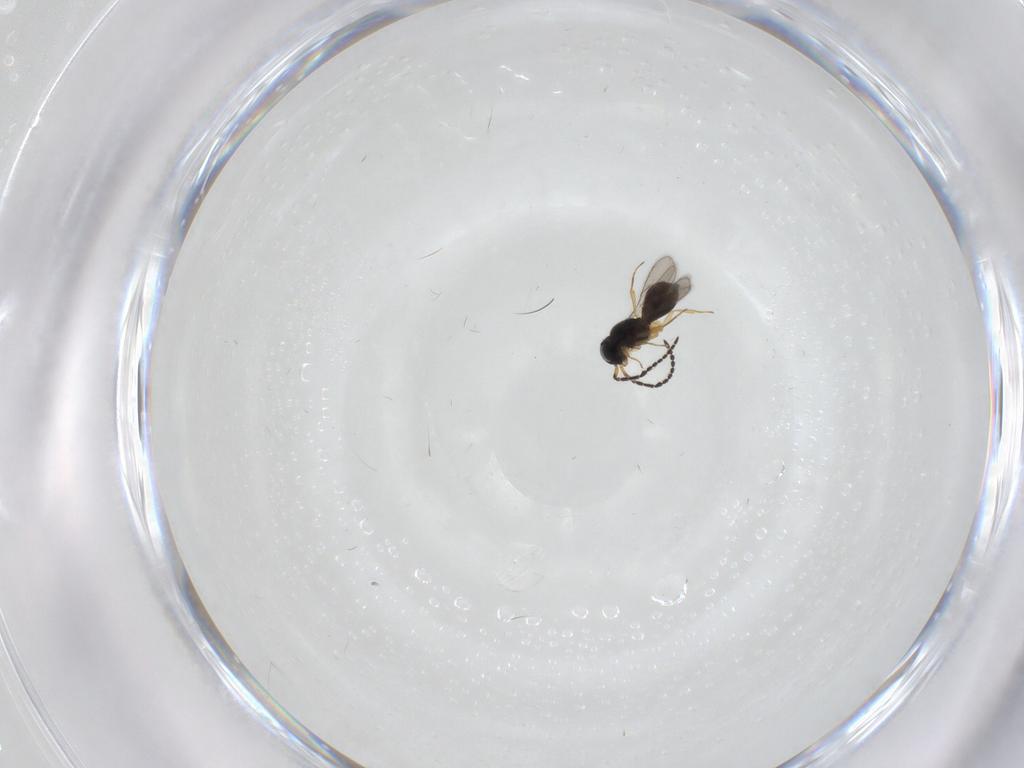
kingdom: Animalia
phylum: Arthropoda
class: Insecta
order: Hymenoptera
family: Scelionidae
